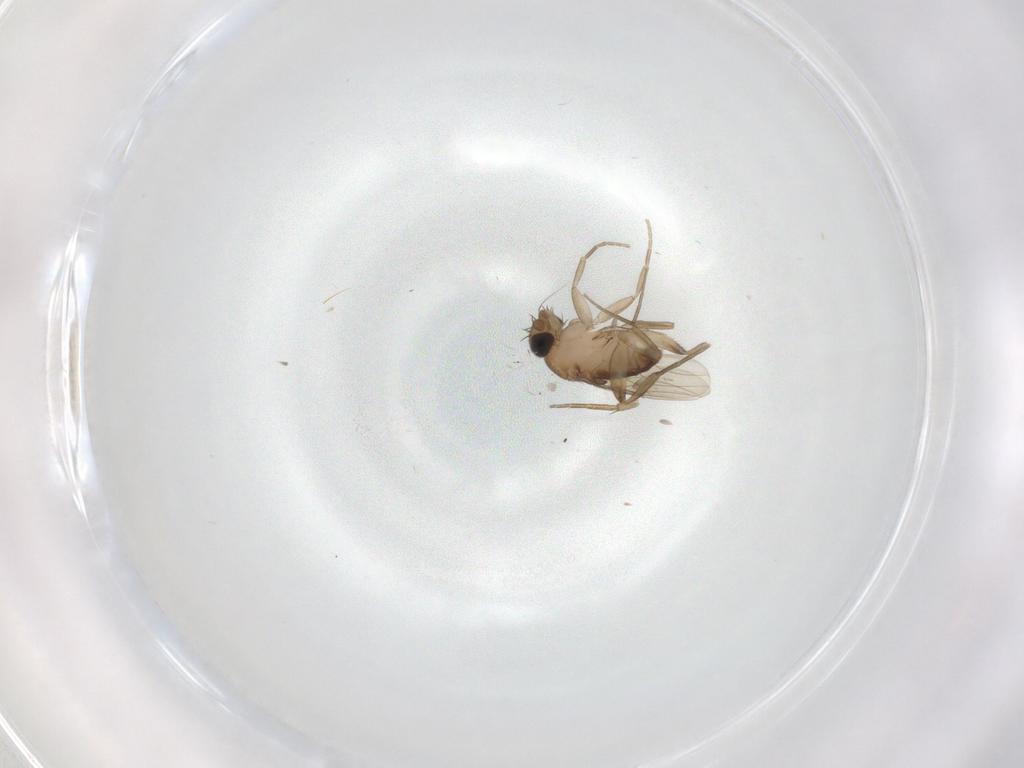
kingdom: Animalia
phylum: Arthropoda
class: Insecta
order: Diptera
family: Phoridae
